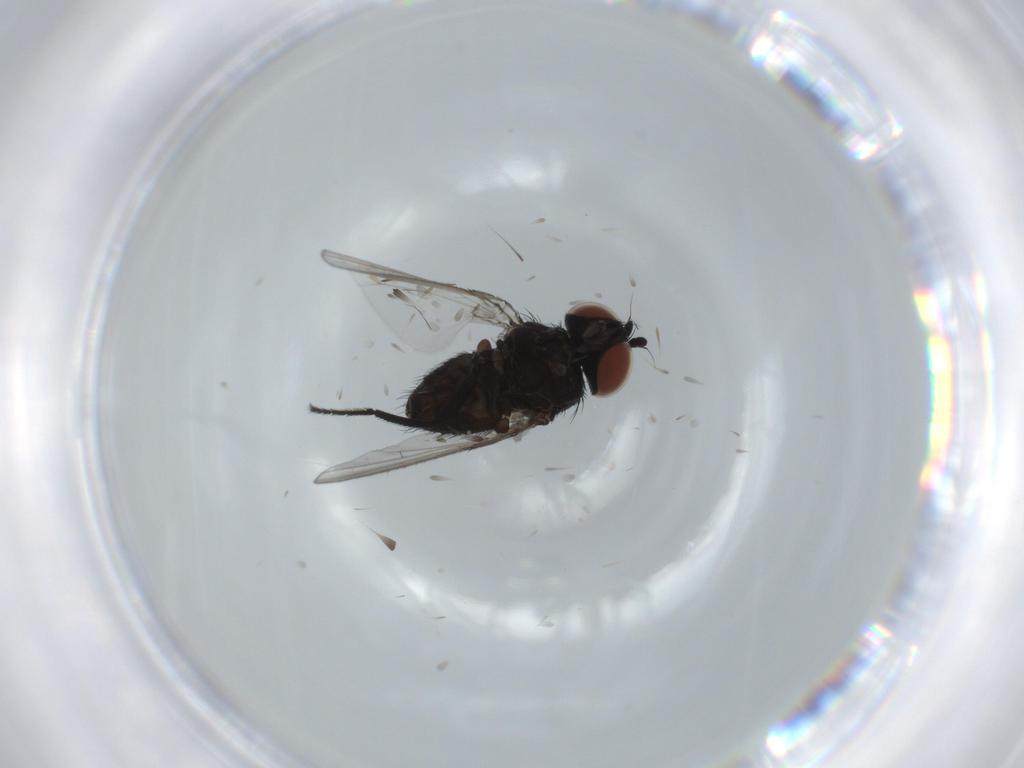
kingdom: Animalia
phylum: Arthropoda
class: Insecta
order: Diptera
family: Milichiidae
